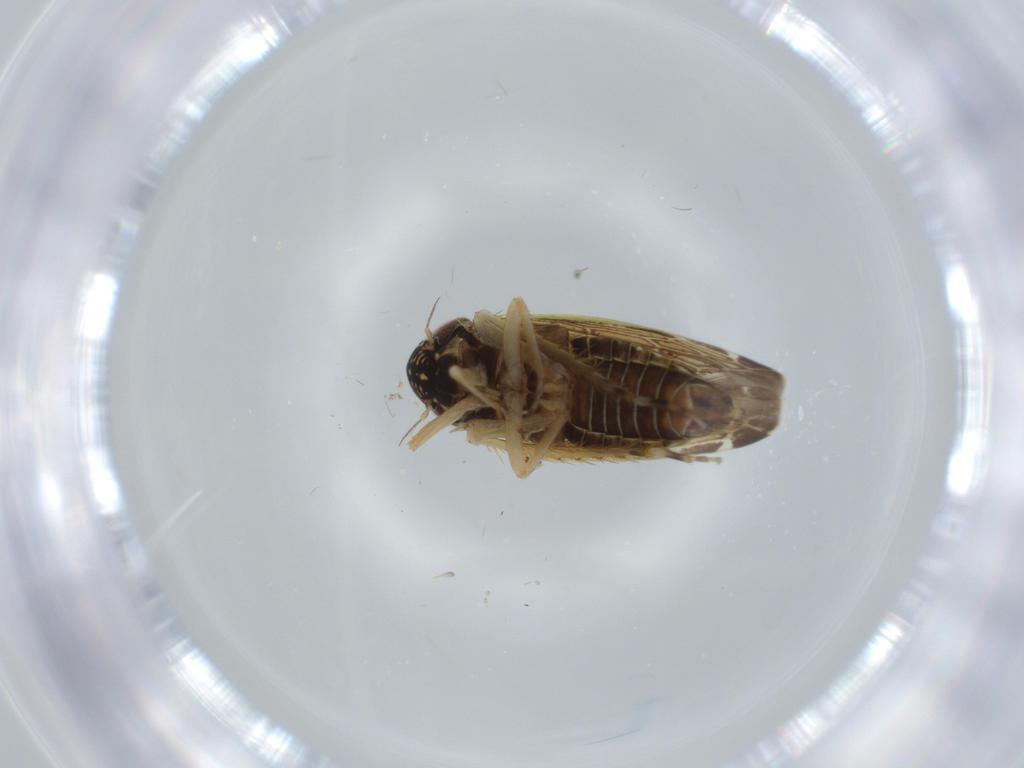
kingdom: Animalia
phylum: Arthropoda
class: Insecta
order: Hemiptera
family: Cicadellidae
